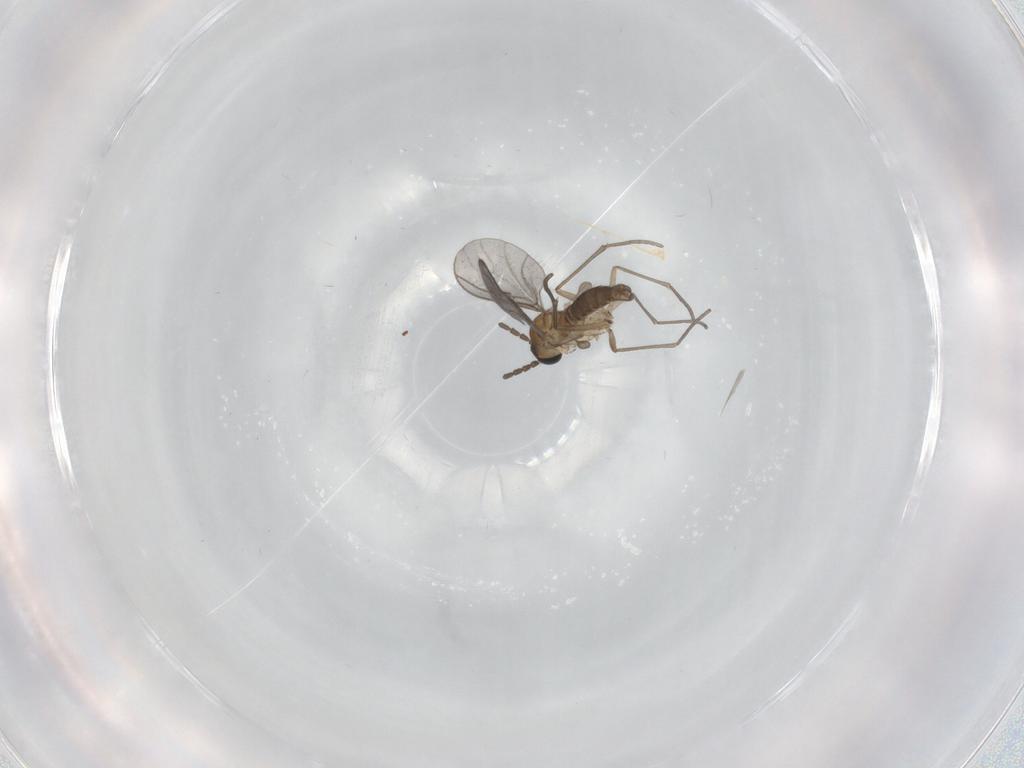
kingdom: Animalia
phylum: Arthropoda
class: Insecta
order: Diptera
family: Sciaridae
